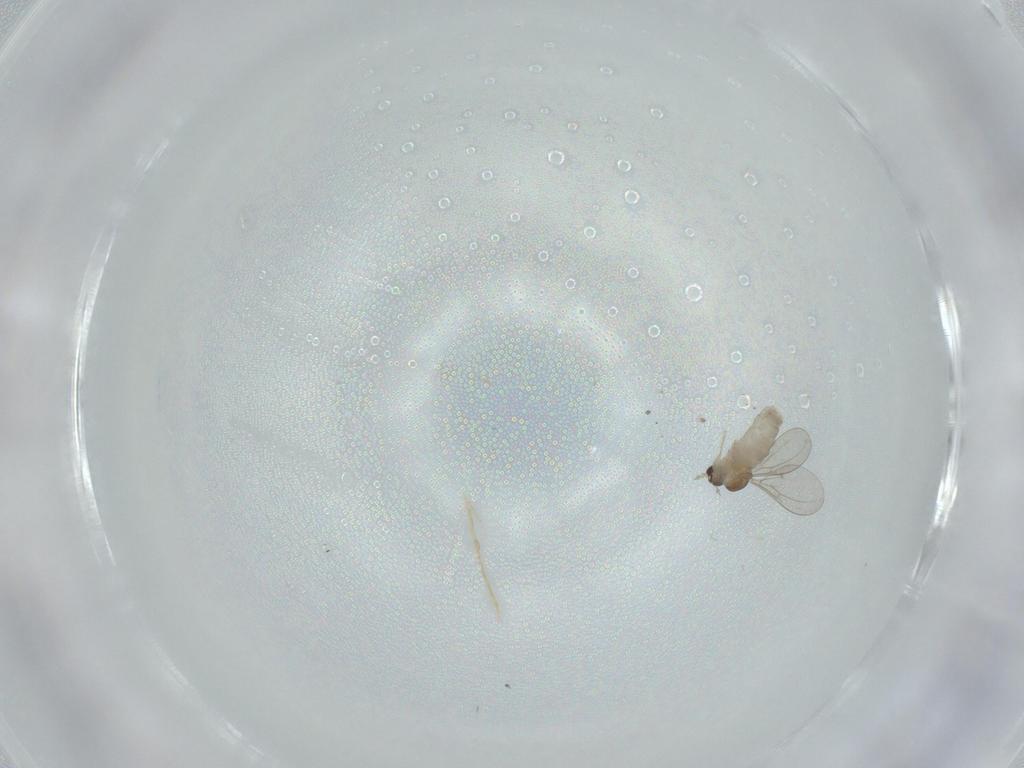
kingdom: Animalia
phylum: Arthropoda
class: Insecta
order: Diptera
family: Cecidomyiidae
